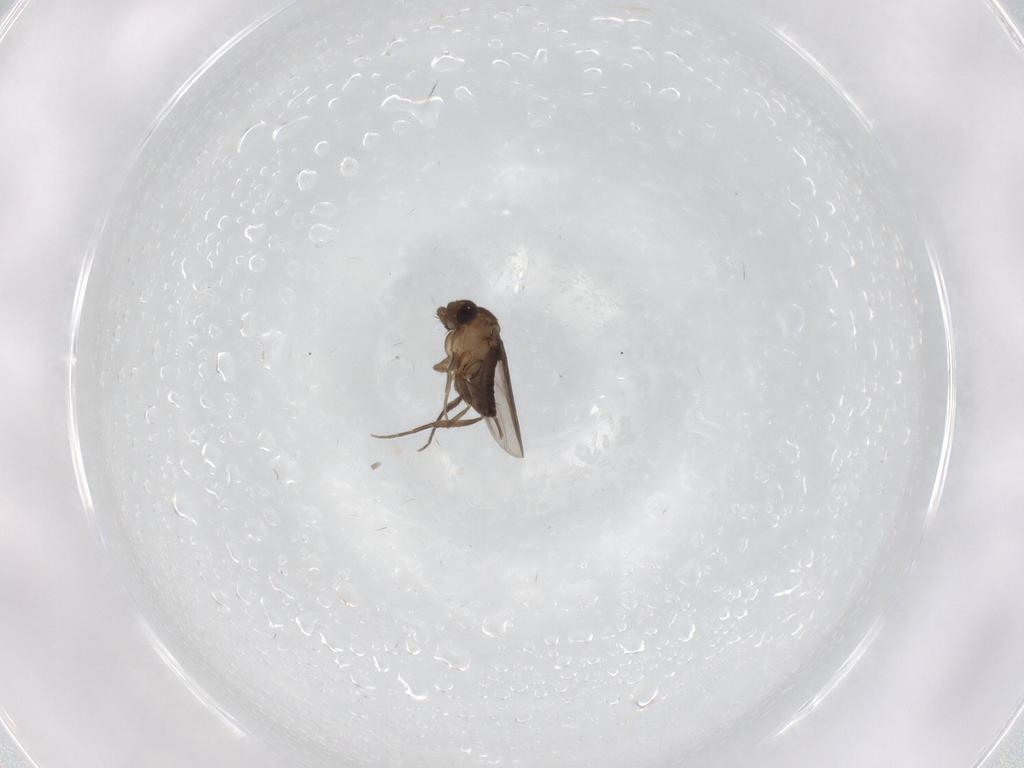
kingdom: Animalia
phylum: Arthropoda
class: Insecta
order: Diptera
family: Phoridae
